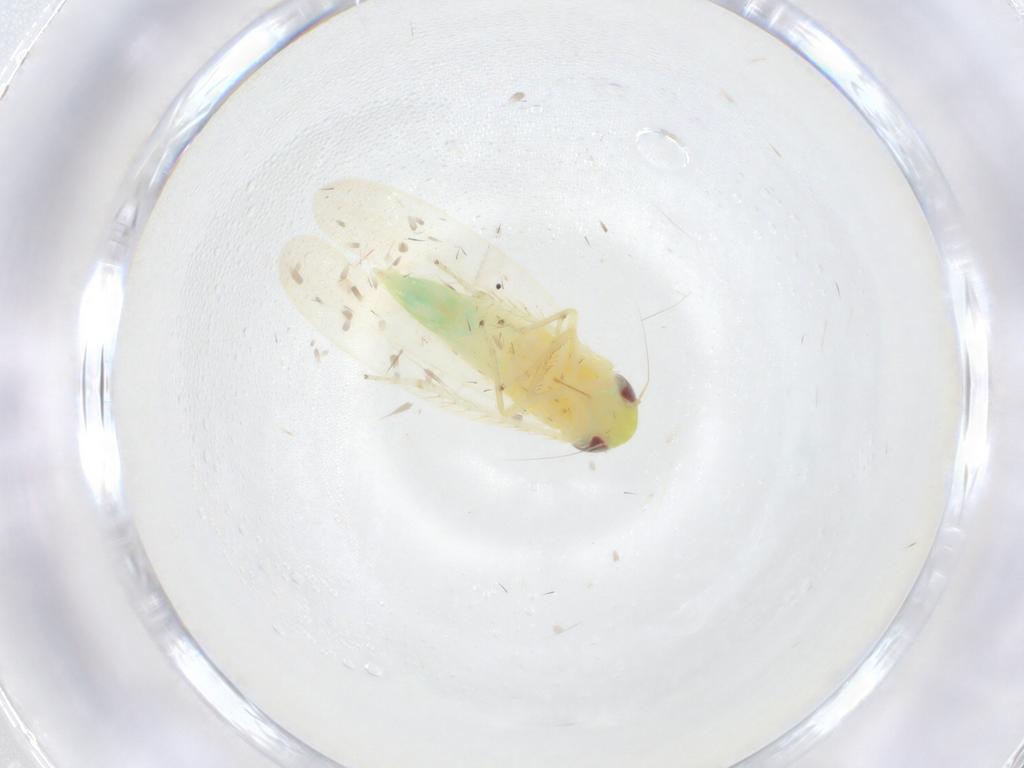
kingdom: Animalia
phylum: Arthropoda
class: Insecta
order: Hemiptera
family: Cicadellidae
